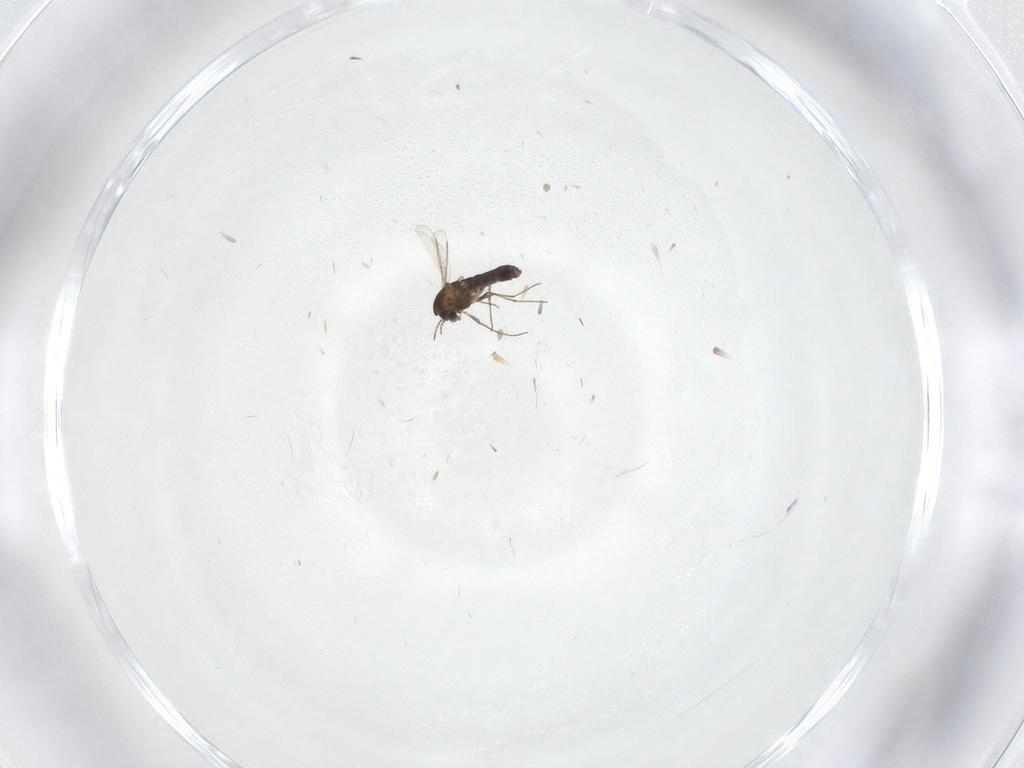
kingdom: Animalia
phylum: Arthropoda
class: Insecta
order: Diptera
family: Chironomidae
